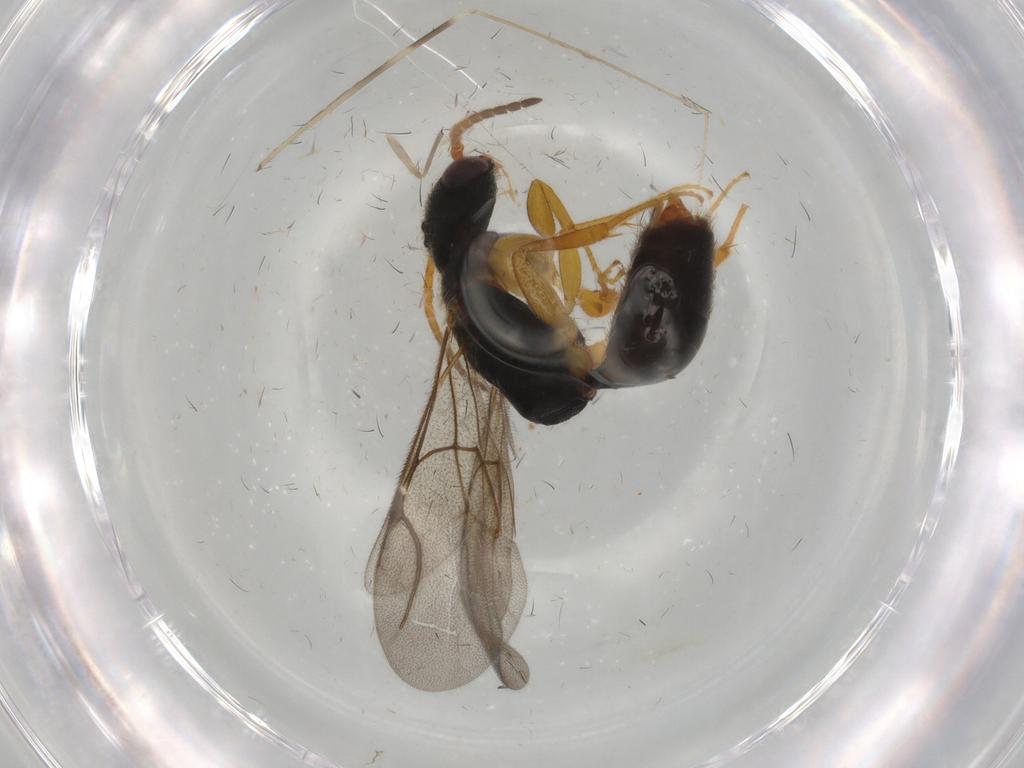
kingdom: Animalia
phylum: Arthropoda
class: Insecta
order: Hymenoptera
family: Bethylidae
